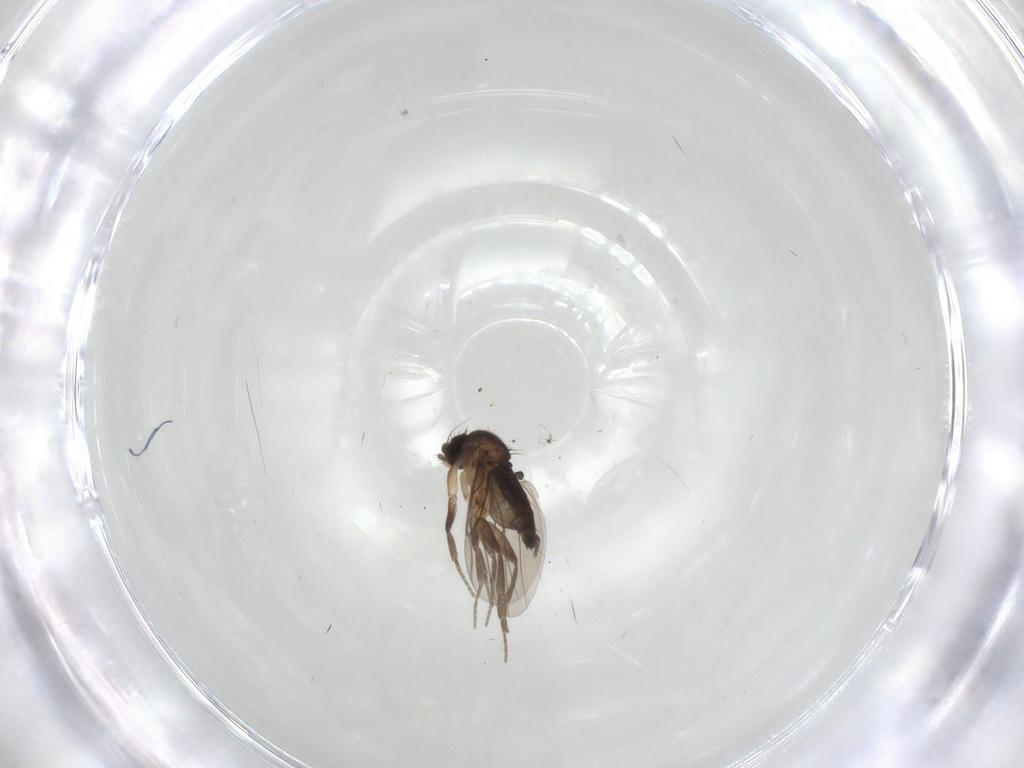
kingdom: Animalia
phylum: Arthropoda
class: Insecta
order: Diptera
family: Phoridae
